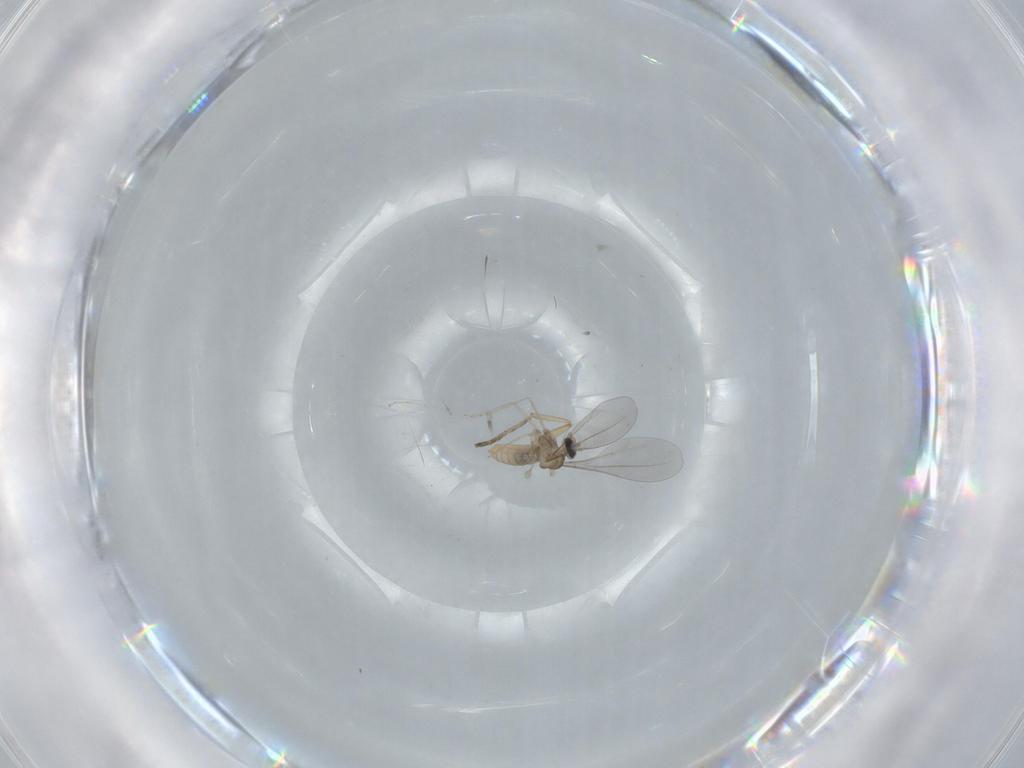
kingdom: Animalia
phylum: Arthropoda
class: Insecta
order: Diptera
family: Cecidomyiidae
